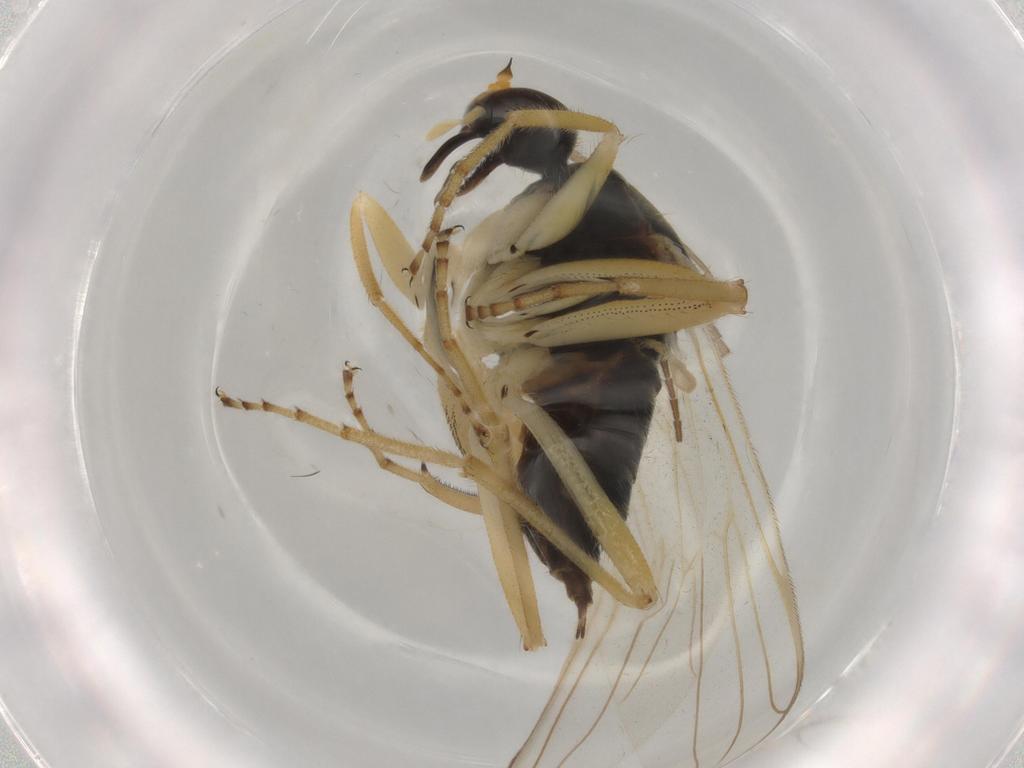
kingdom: Animalia
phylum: Arthropoda
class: Insecta
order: Diptera
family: Hybotidae
